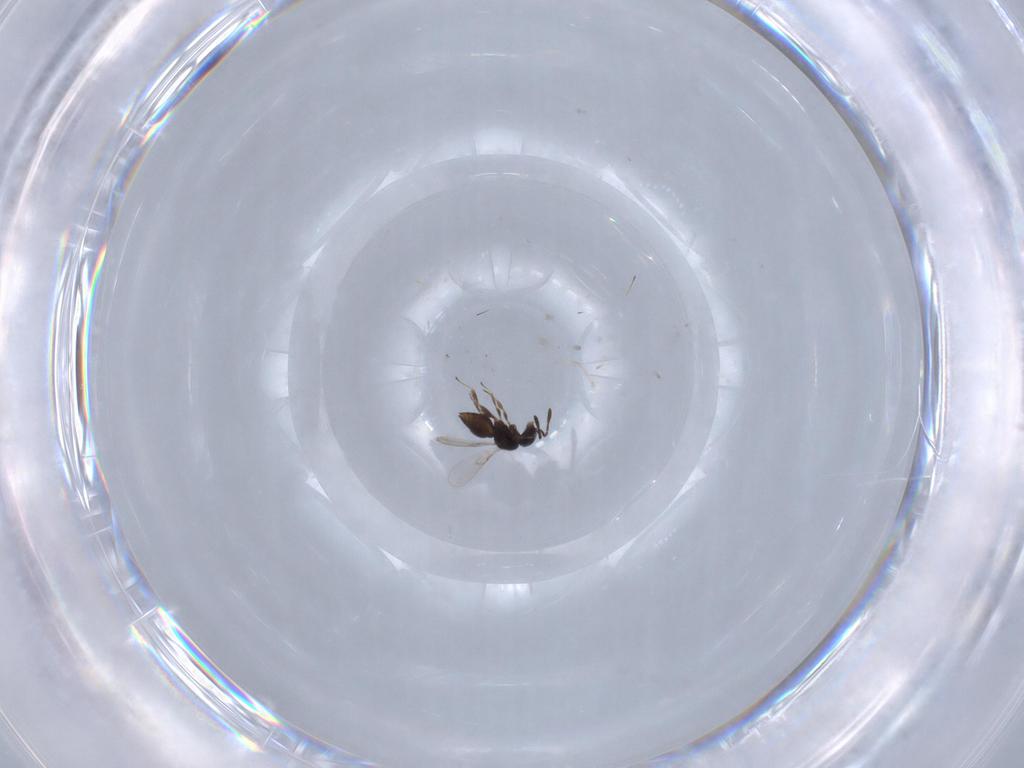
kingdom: Animalia
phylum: Arthropoda
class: Insecta
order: Hymenoptera
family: Scelionidae
